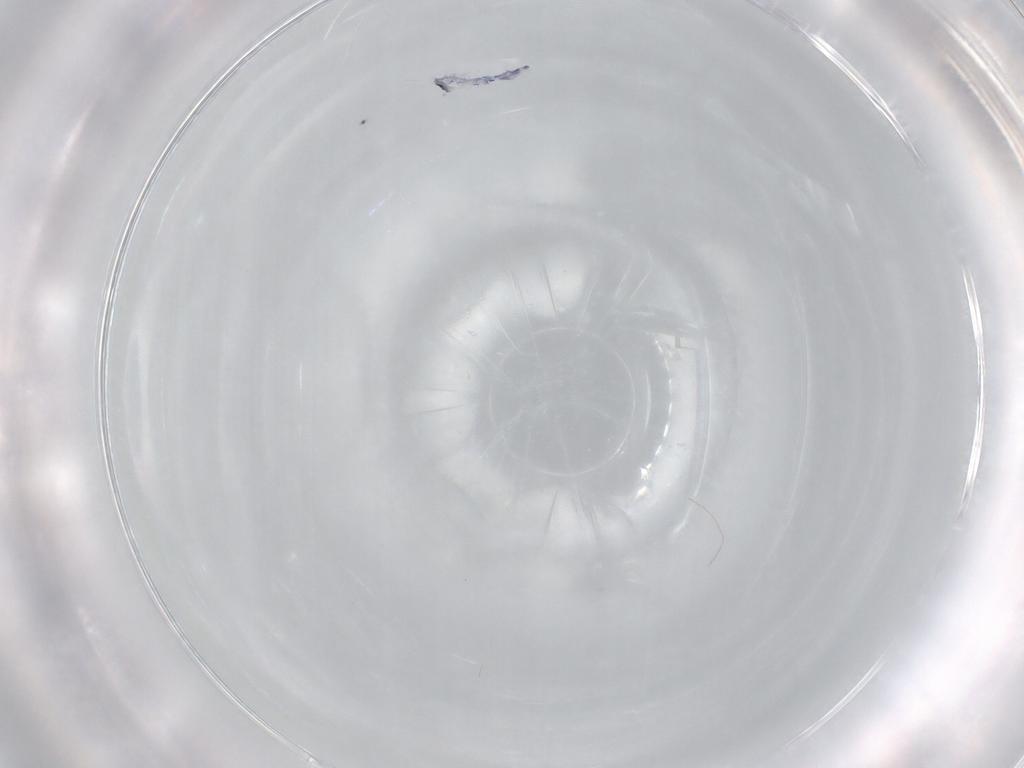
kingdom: Animalia
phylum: Arthropoda
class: Collembola
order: Entomobryomorpha
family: Entomobryidae
